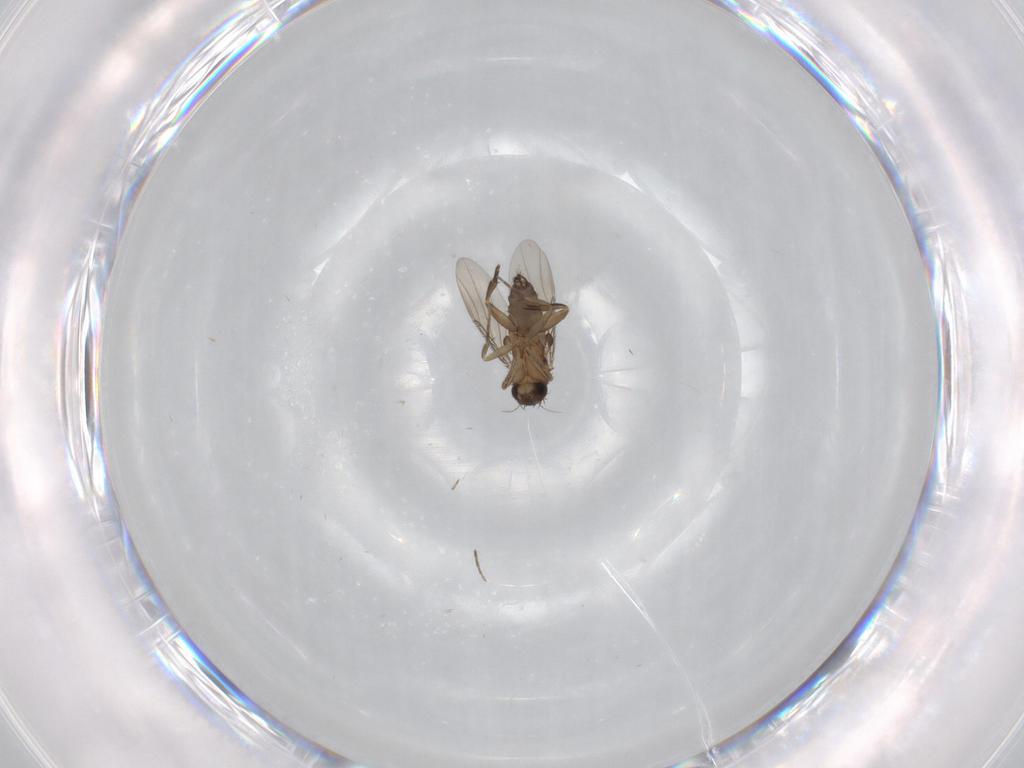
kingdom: Animalia
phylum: Arthropoda
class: Insecta
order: Diptera
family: Phoridae
